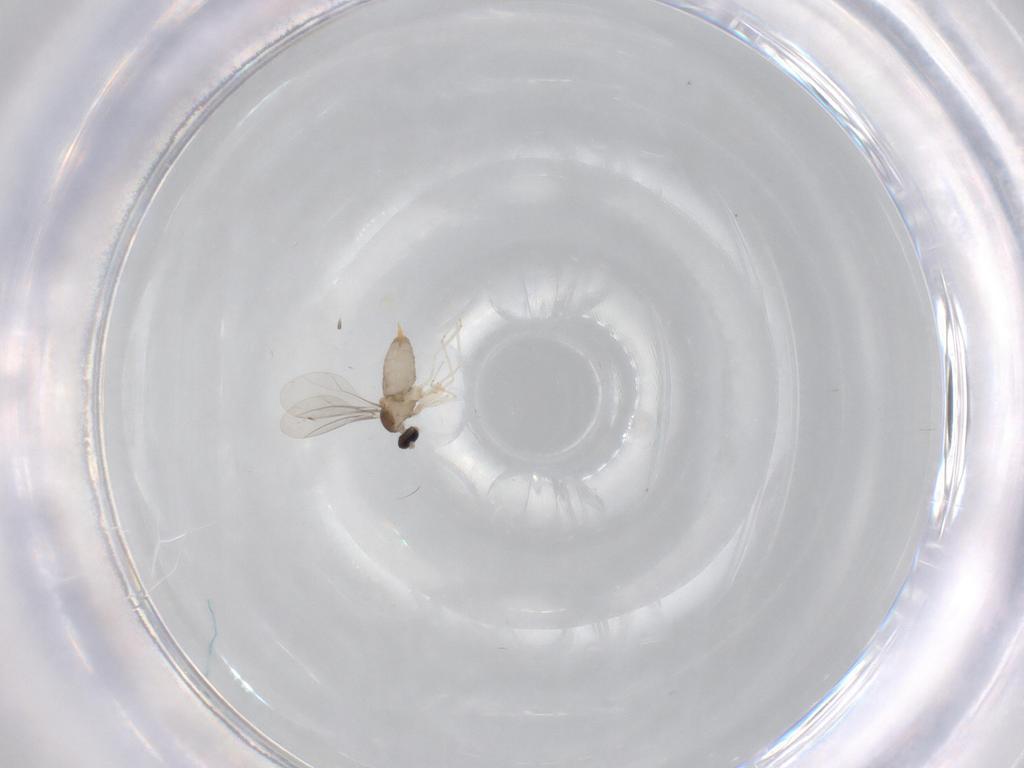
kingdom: Animalia
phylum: Arthropoda
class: Insecta
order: Diptera
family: Cecidomyiidae
